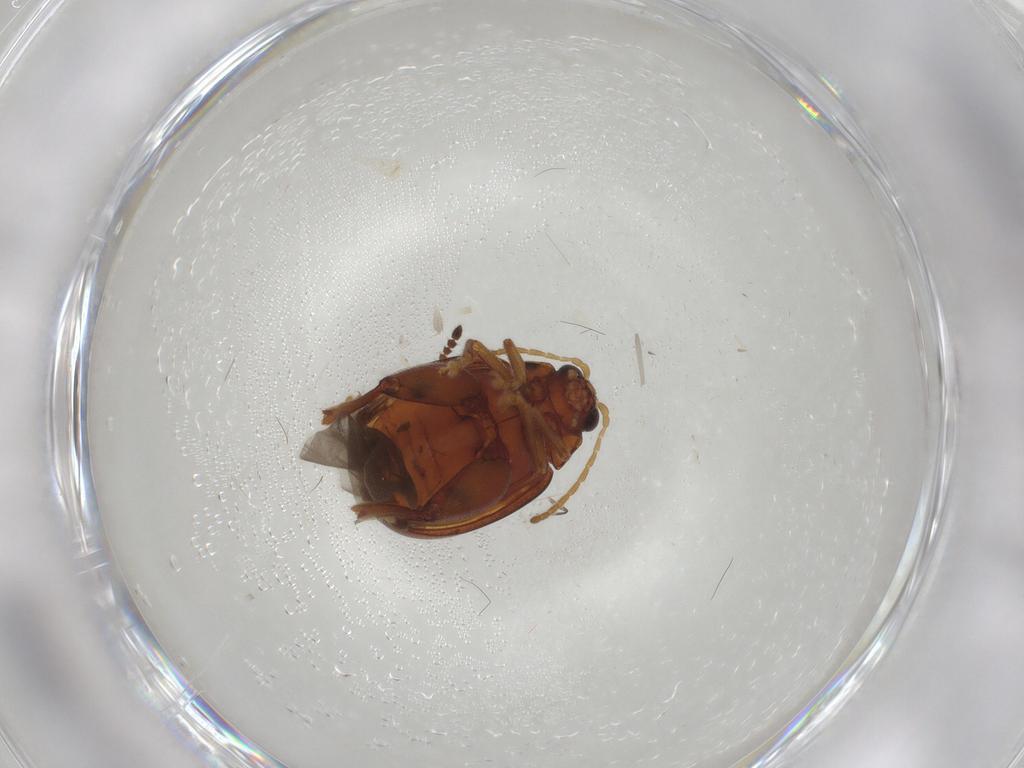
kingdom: Animalia
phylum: Arthropoda
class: Insecta
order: Coleoptera
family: Chrysomelidae
